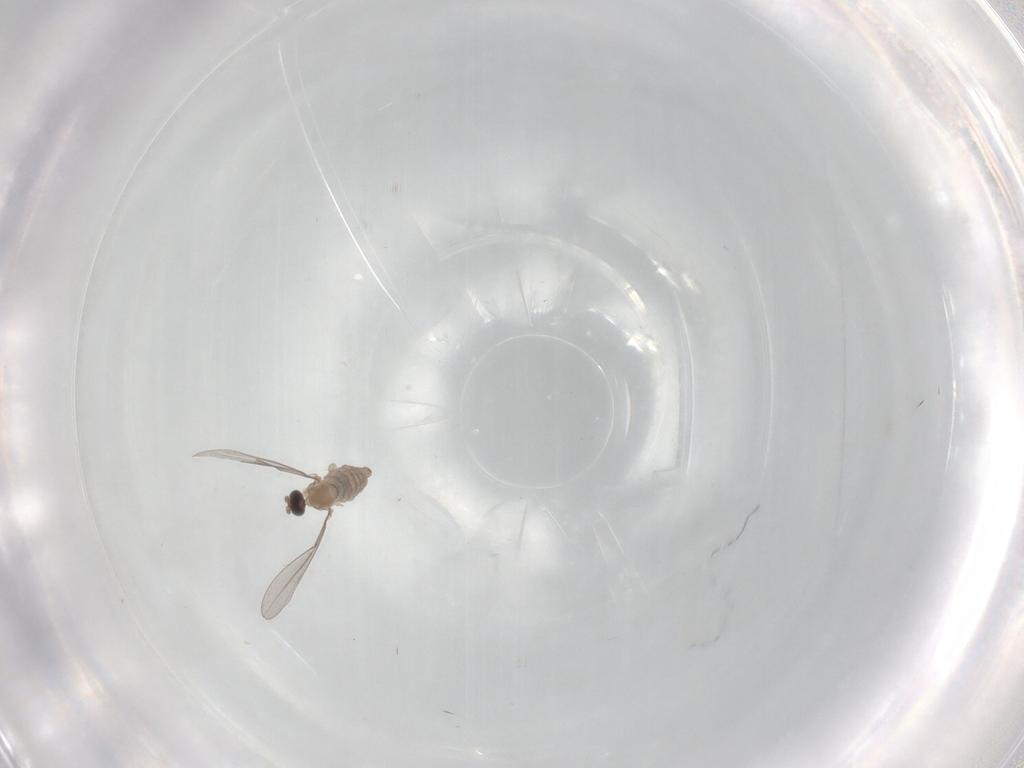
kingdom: Animalia
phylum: Arthropoda
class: Insecta
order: Diptera
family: Cecidomyiidae
